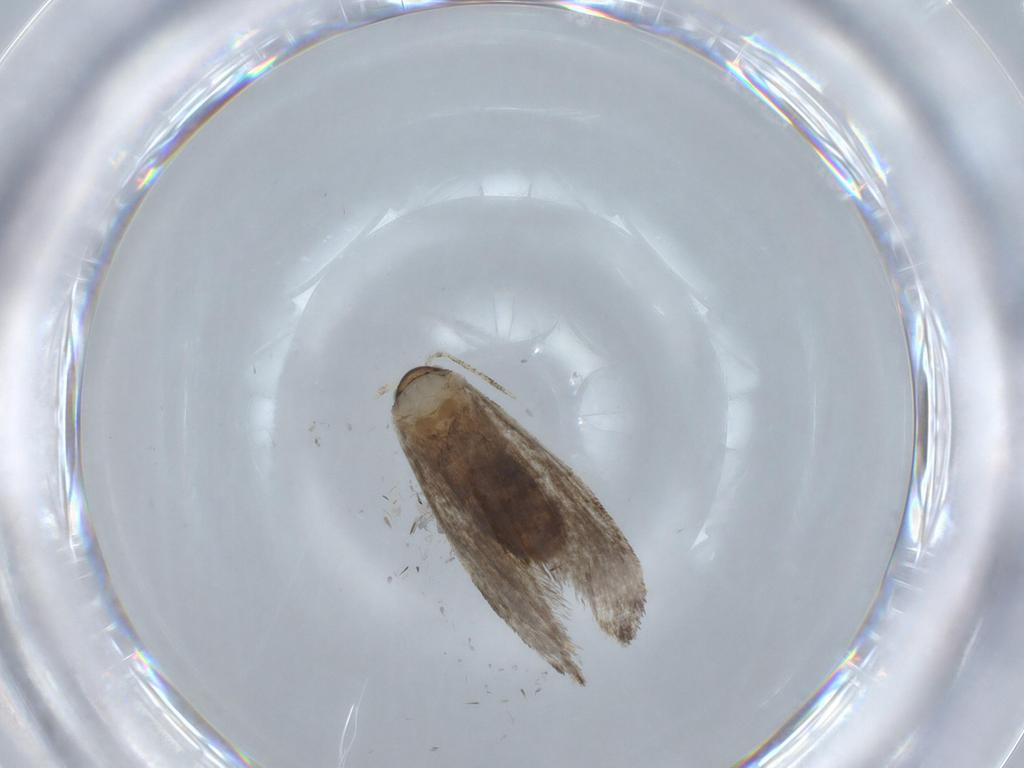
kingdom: Animalia
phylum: Arthropoda
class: Insecta
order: Lepidoptera
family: Tineidae
